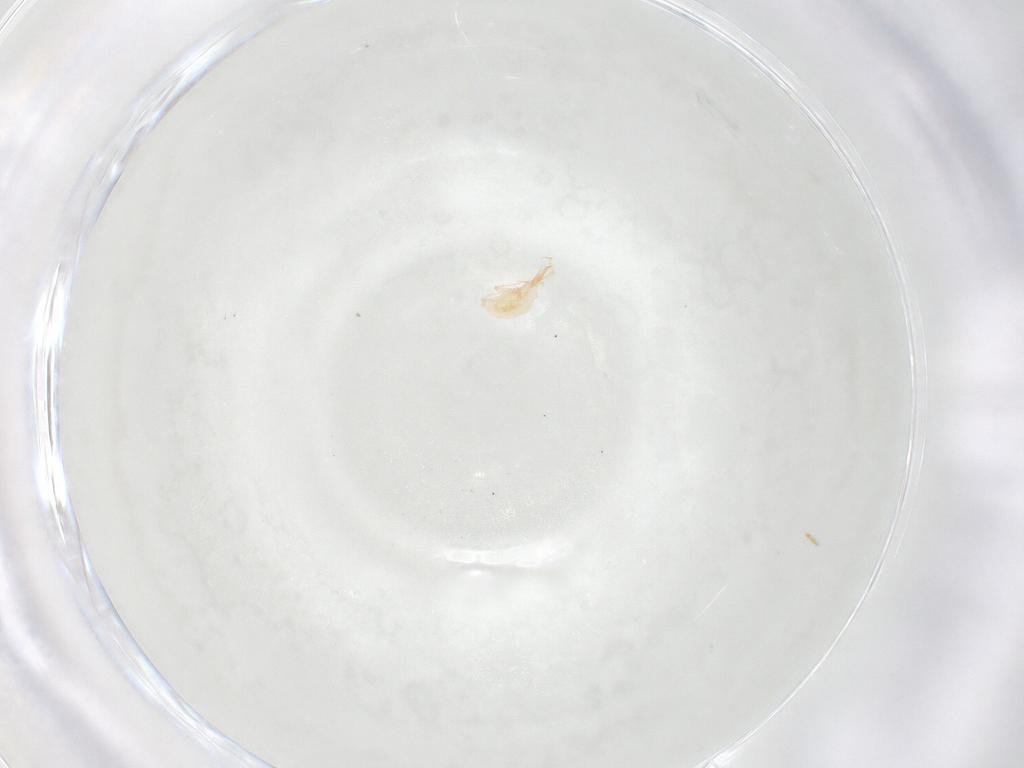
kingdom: Animalia
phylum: Arthropoda
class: Arachnida
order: Trombidiformes
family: Cunaxidae
